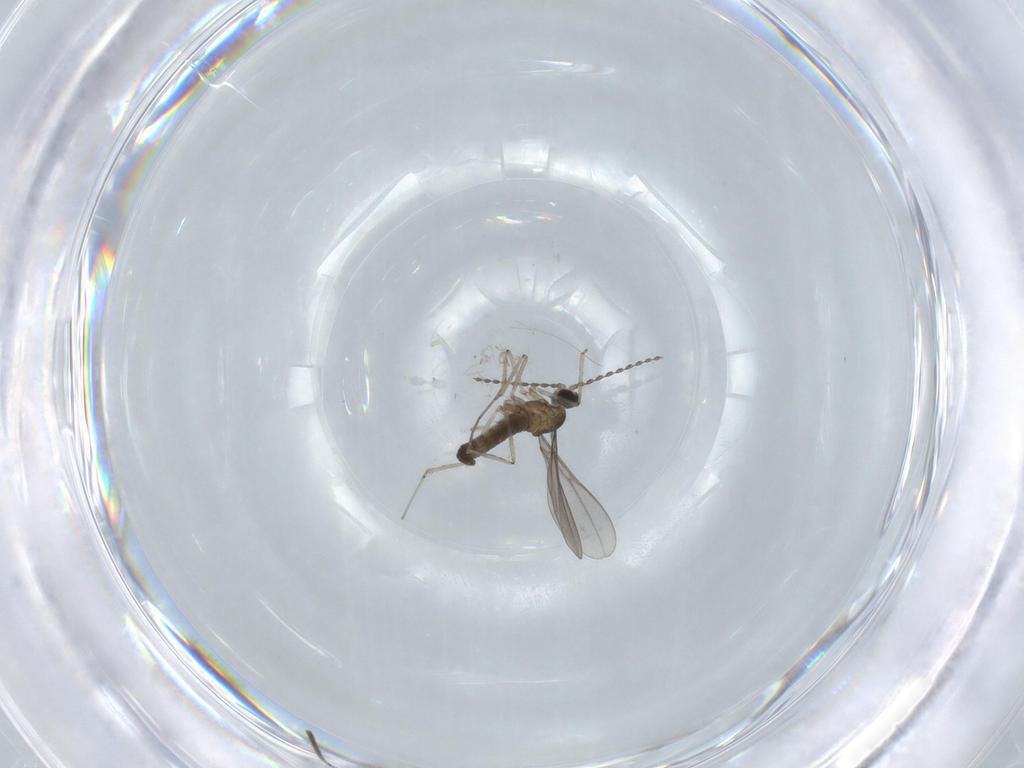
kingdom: Animalia
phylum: Arthropoda
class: Insecta
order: Diptera
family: Cecidomyiidae
